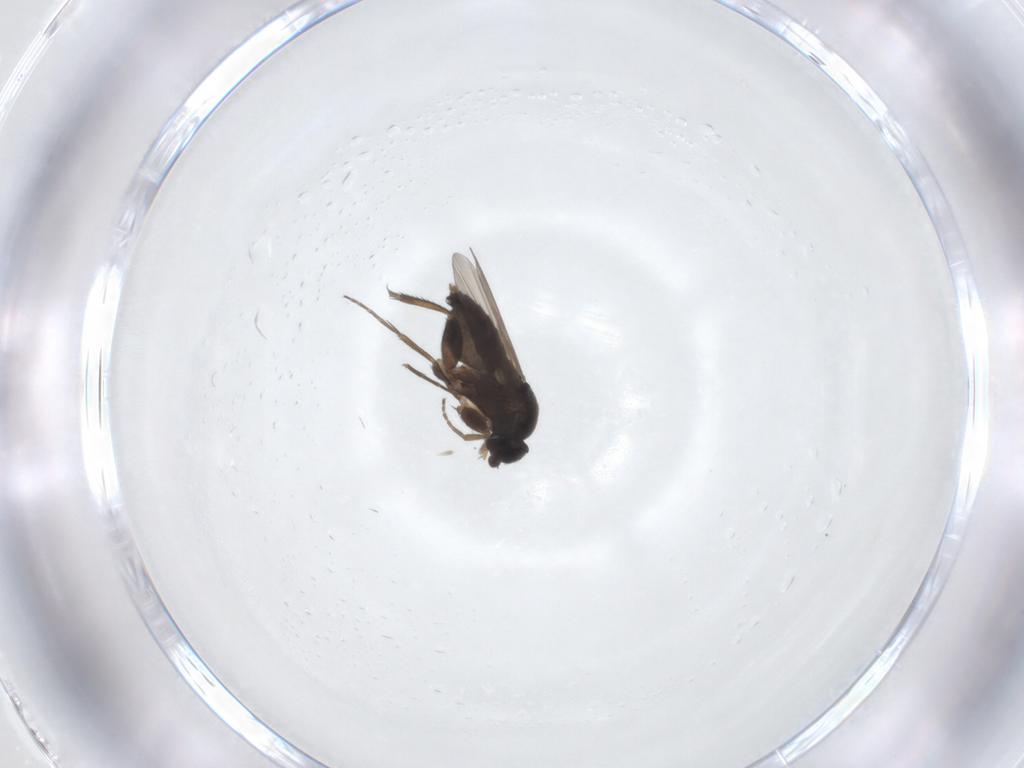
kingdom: Animalia
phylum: Arthropoda
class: Insecta
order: Diptera
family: Phoridae
